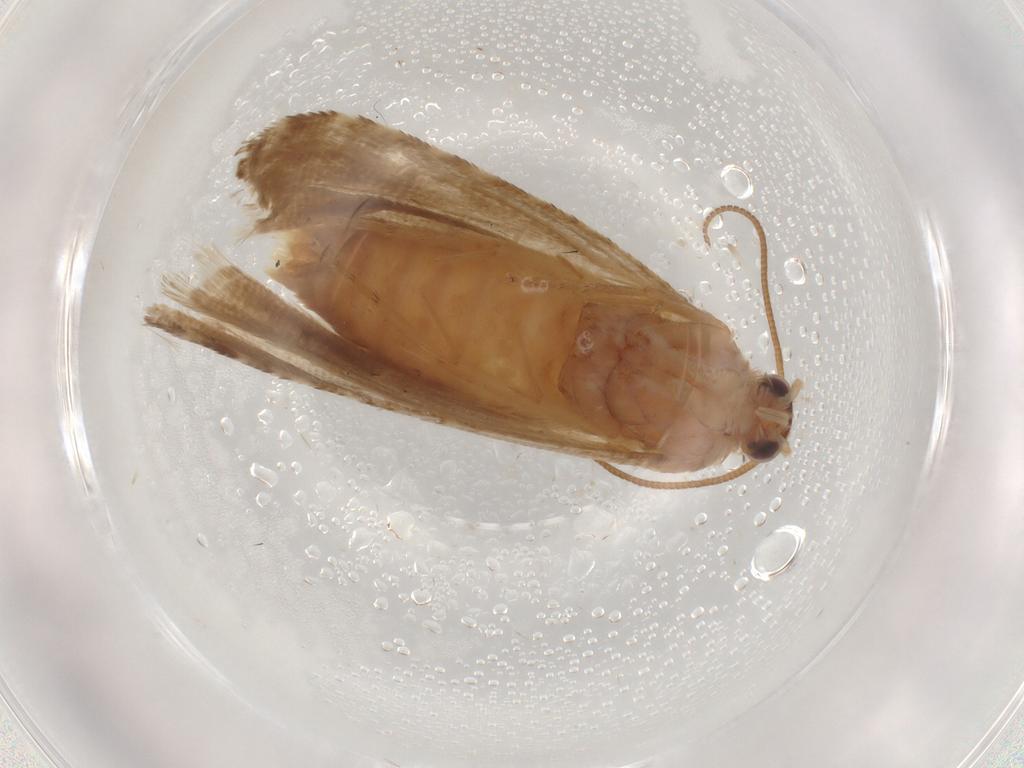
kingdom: Animalia
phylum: Arthropoda
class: Insecta
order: Lepidoptera
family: Tortricidae
